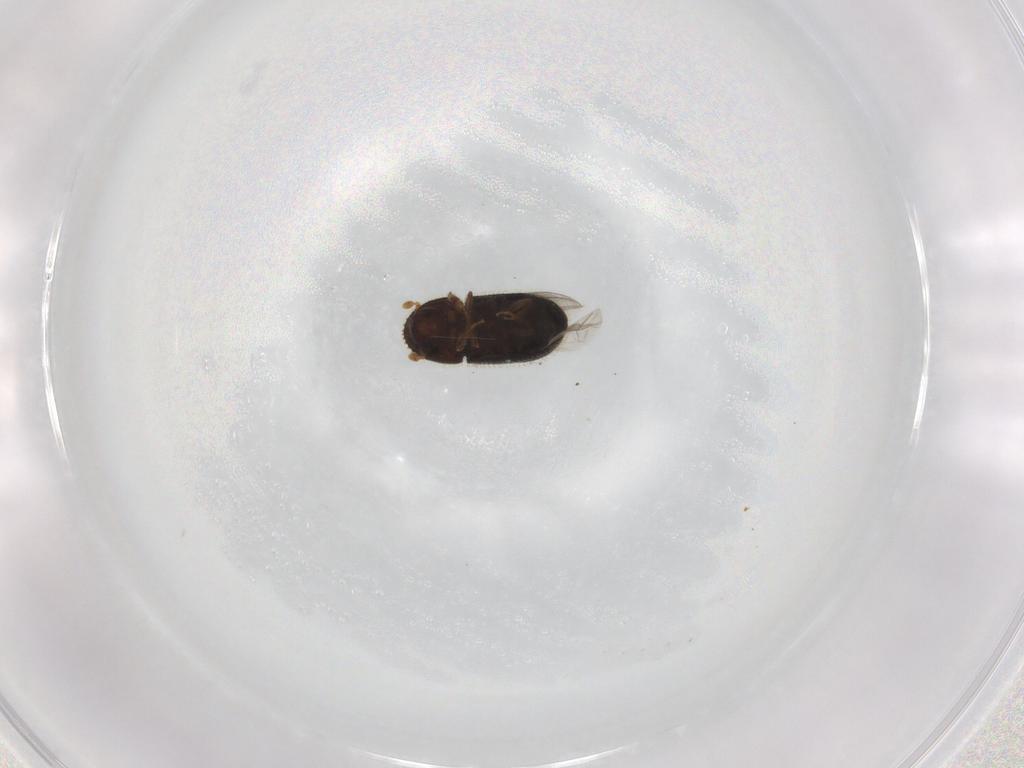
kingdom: Animalia
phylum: Arthropoda
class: Insecta
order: Coleoptera
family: Curculionidae
